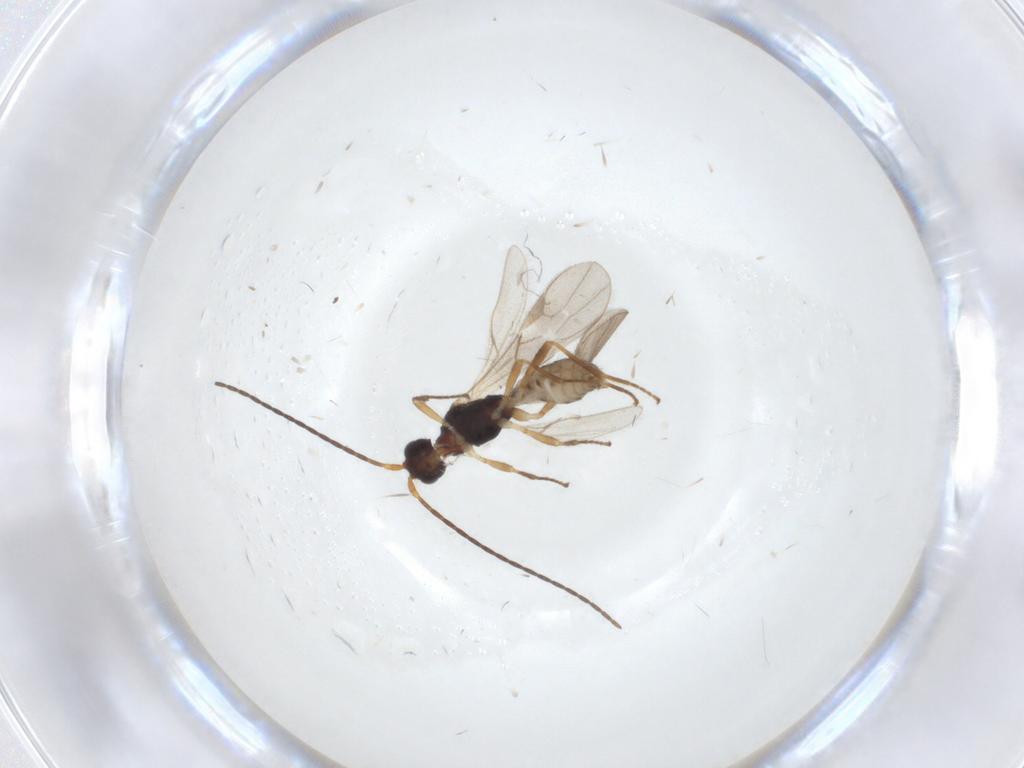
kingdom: Animalia
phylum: Arthropoda
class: Insecta
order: Hymenoptera
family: Braconidae
